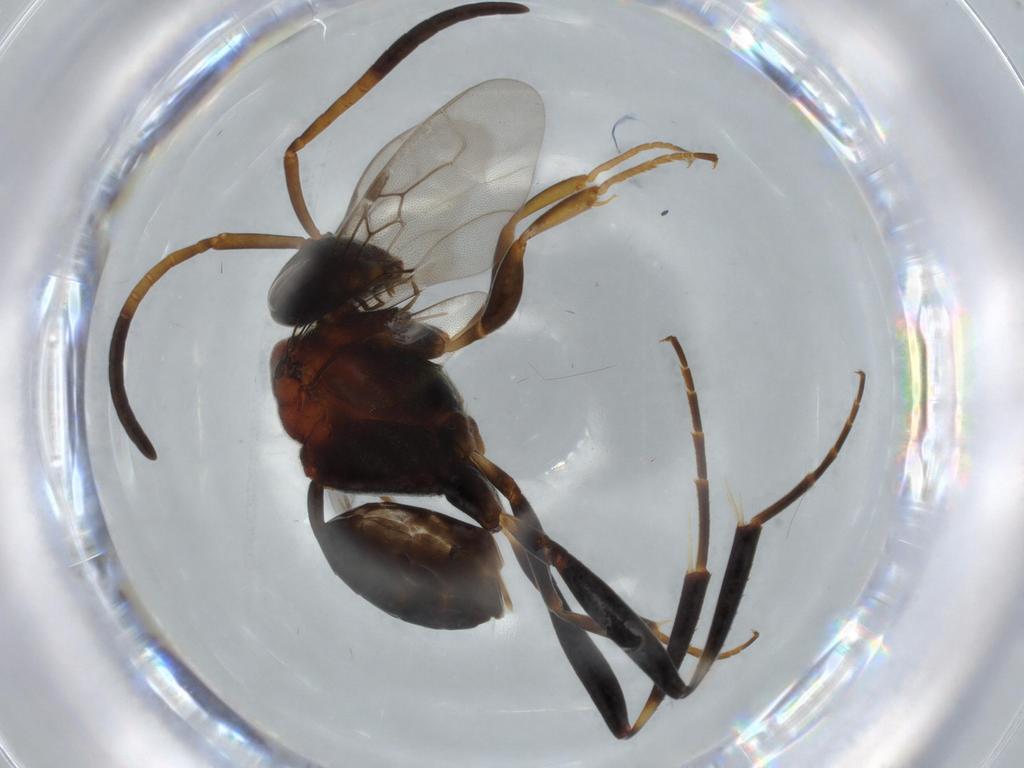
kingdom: Animalia
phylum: Arthropoda
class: Insecta
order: Hymenoptera
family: Evaniidae
